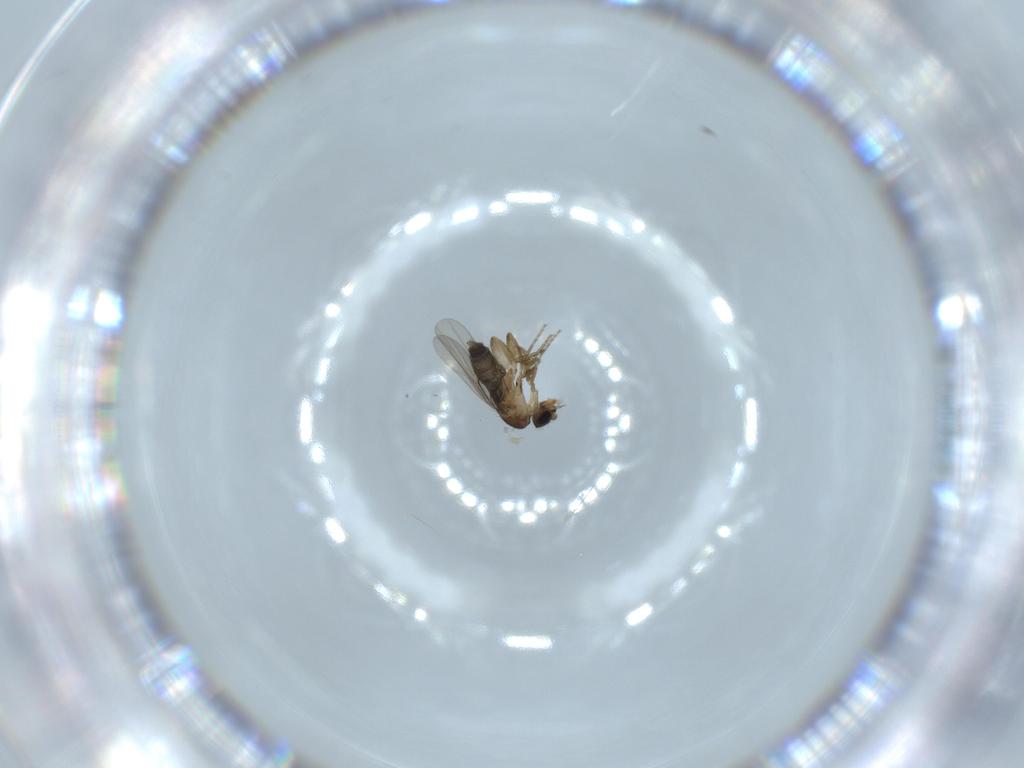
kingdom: Animalia
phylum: Arthropoda
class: Insecta
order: Diptera
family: Phoridae
